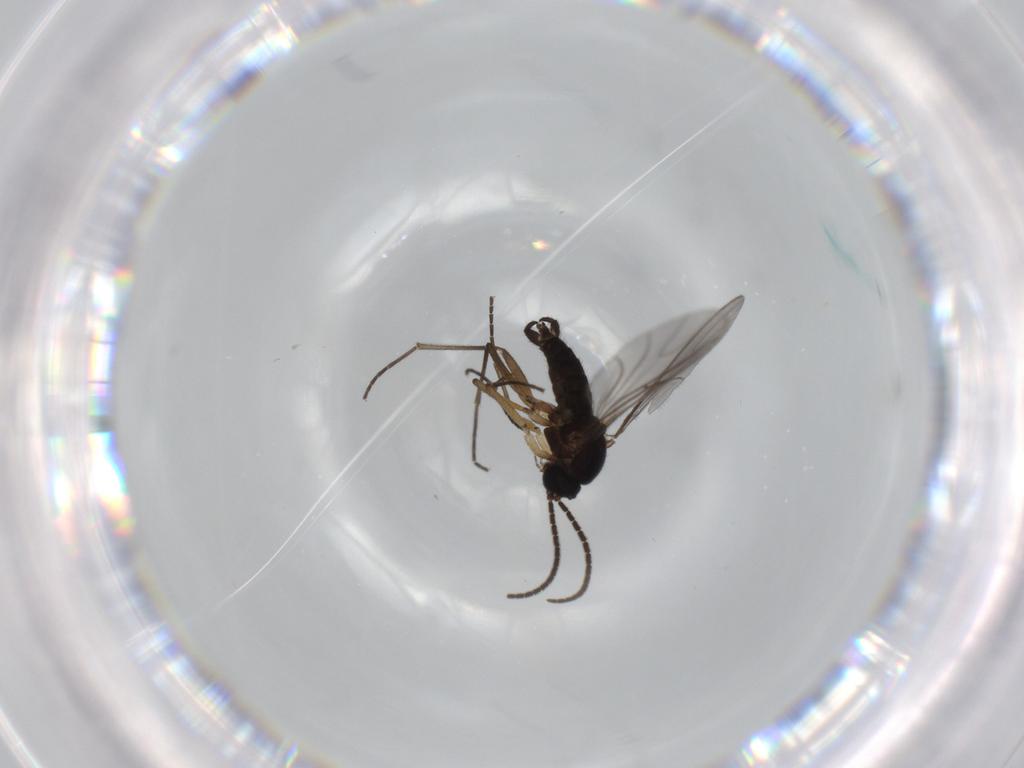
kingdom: Animalia
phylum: Arthropoda
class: Insecta
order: Diptera
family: Sciaridae
